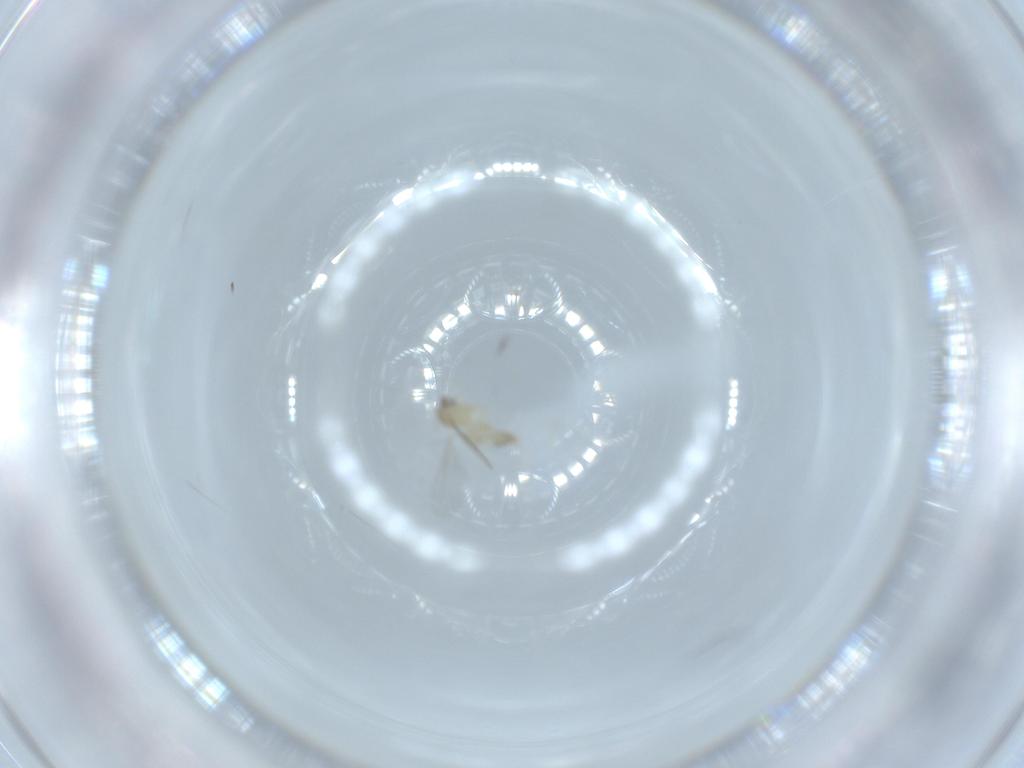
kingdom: Animalia
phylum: Arthropoda
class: Insecta
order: Diptera
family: Cecidomyiidae
